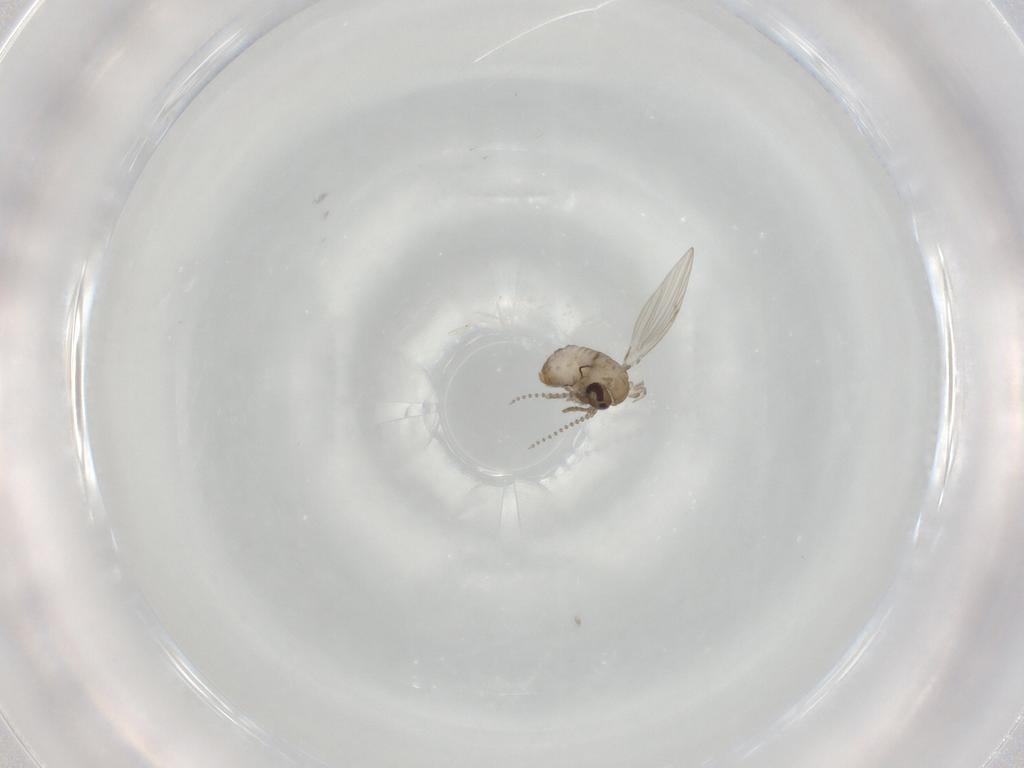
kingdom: Animalia
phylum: Arthropoda
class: Insecta
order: Diptera
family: Psychodidae
